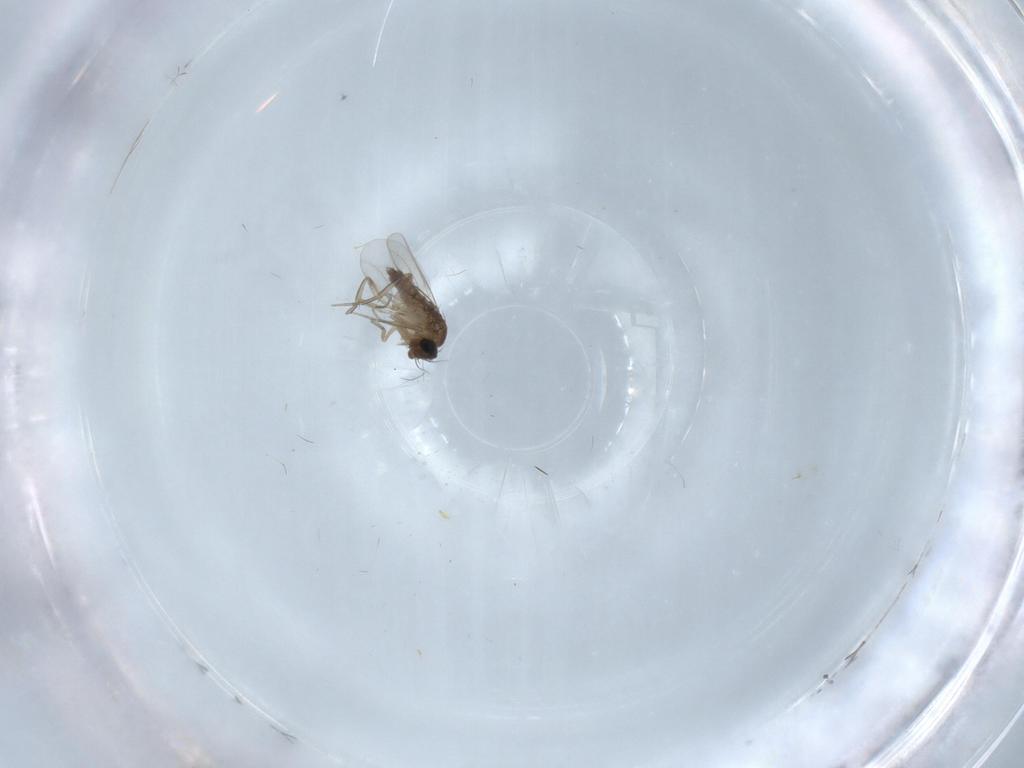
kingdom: Animalia
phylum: Arthropoda
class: Insecta
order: Diptera
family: Phoridae
